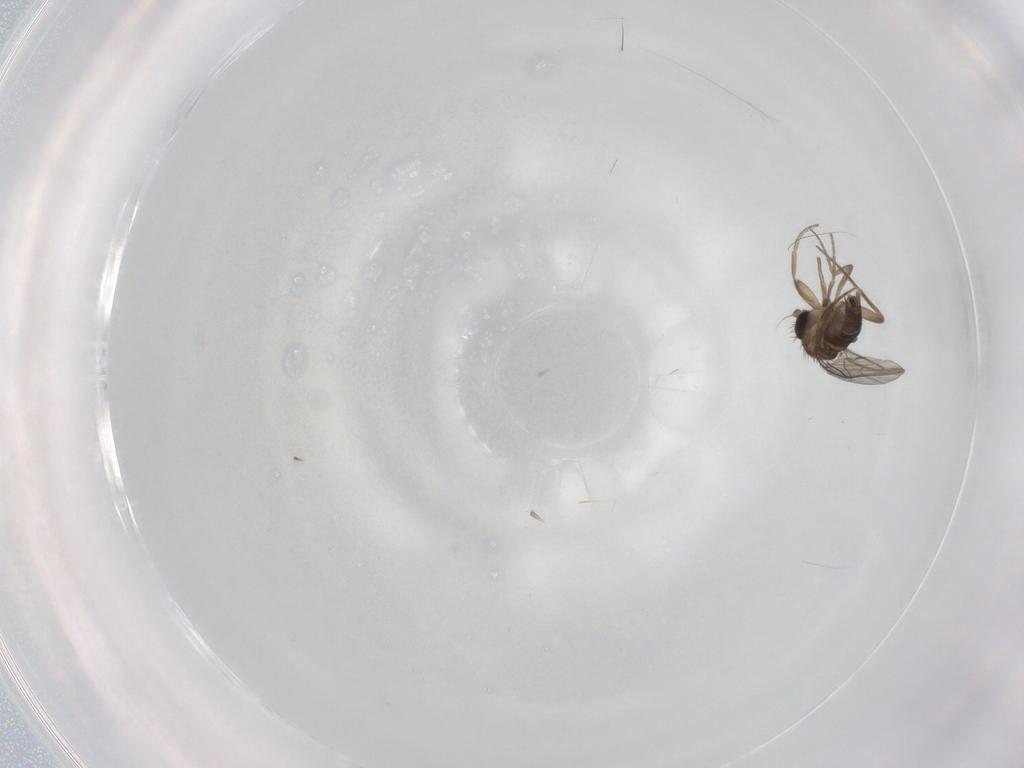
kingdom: Animalia
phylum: Arthropoda
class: Insecta
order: Diptera
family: Phoridae
